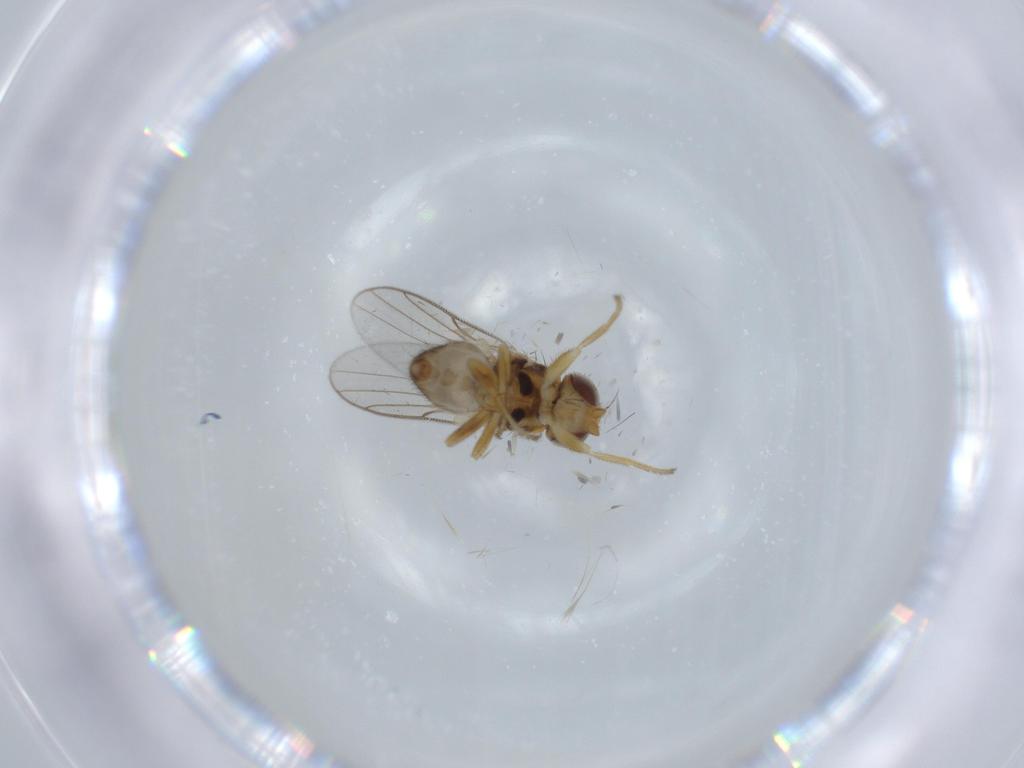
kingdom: Animalia
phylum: Arthropoda
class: Insecta
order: Diptera
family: Chloropidae
